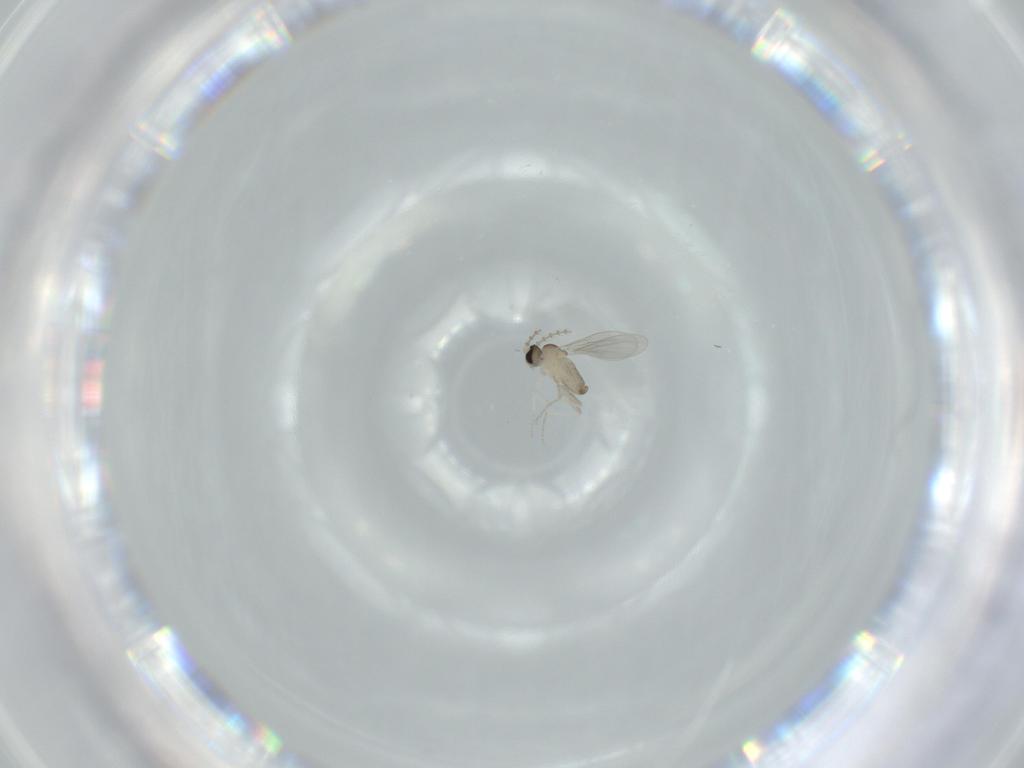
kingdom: Animalia
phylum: Arthropoda
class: Insecta
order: Diptera
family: Cecidomyiidae
